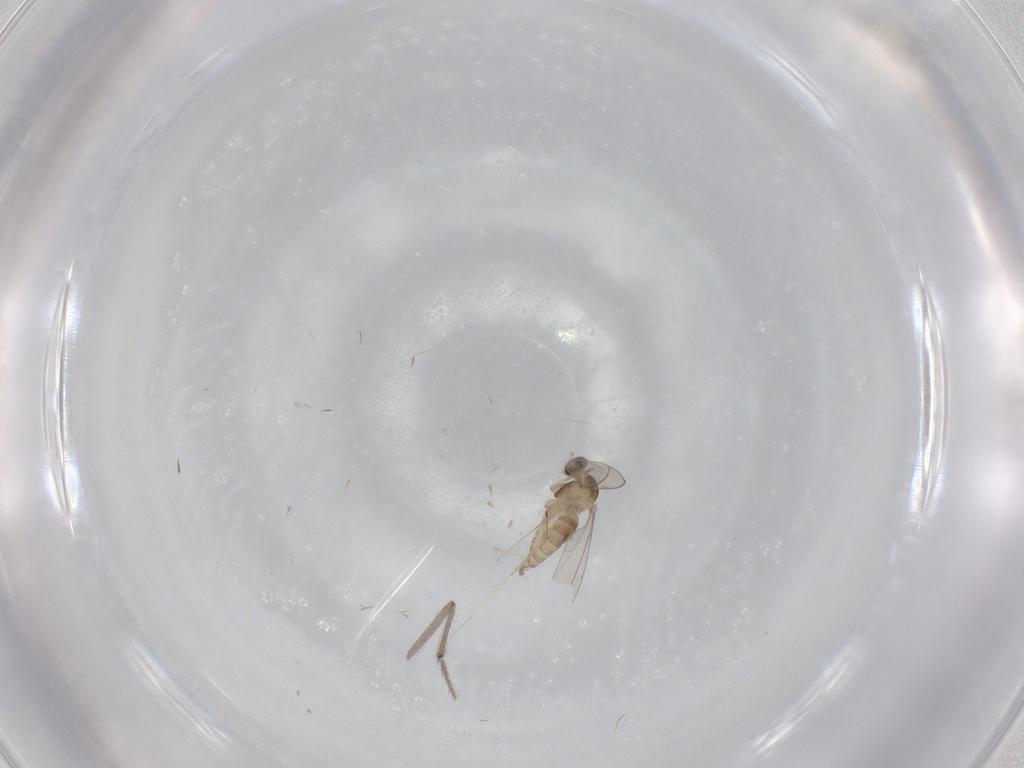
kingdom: Animalia
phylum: Arthropoda
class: Insecta
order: Diptera
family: Cecidomyiidae
